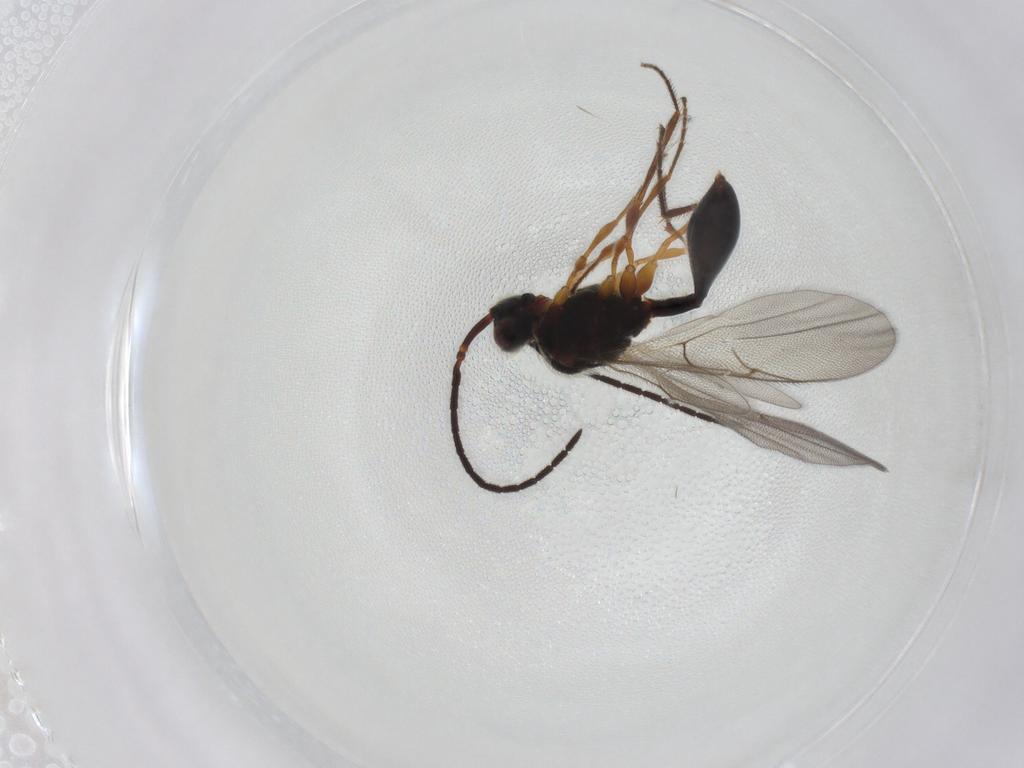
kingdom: Animalia
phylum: Arthropoda
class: Insecta
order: Hymenoptera
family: Diapriidae
